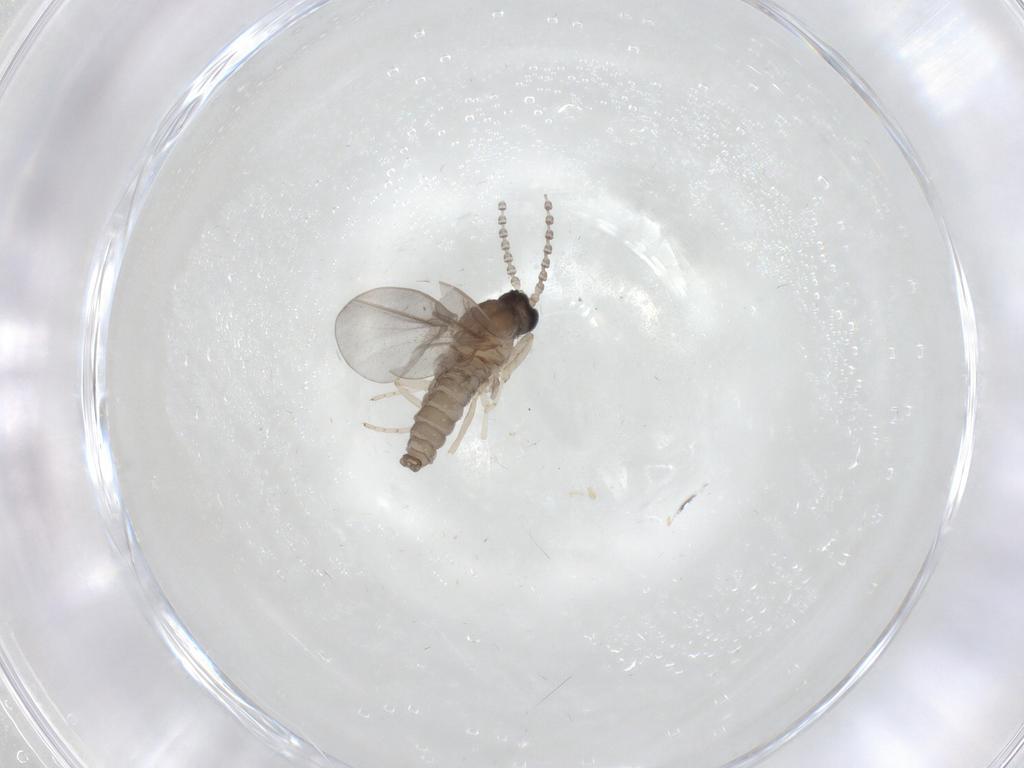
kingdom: Animalia
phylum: Arthropoda
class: Insecta
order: Diptera
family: Cecidomyiidae
